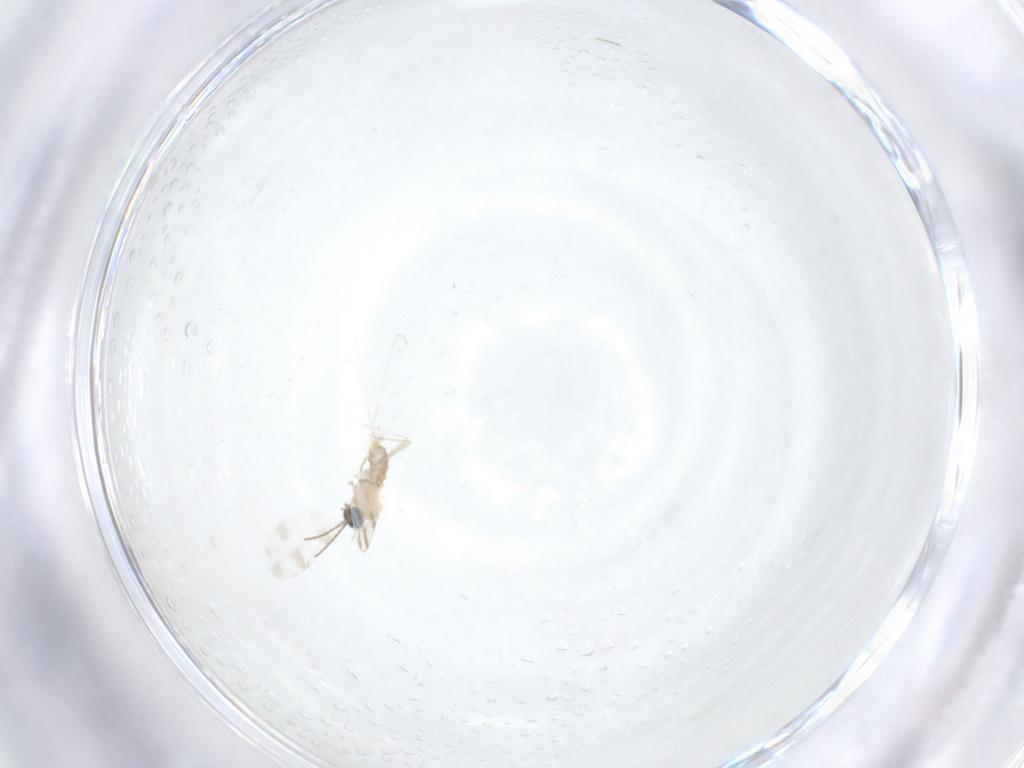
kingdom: Animalia
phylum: Arthropoda
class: Insecta
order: Diptera
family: Cecidomyiidae
